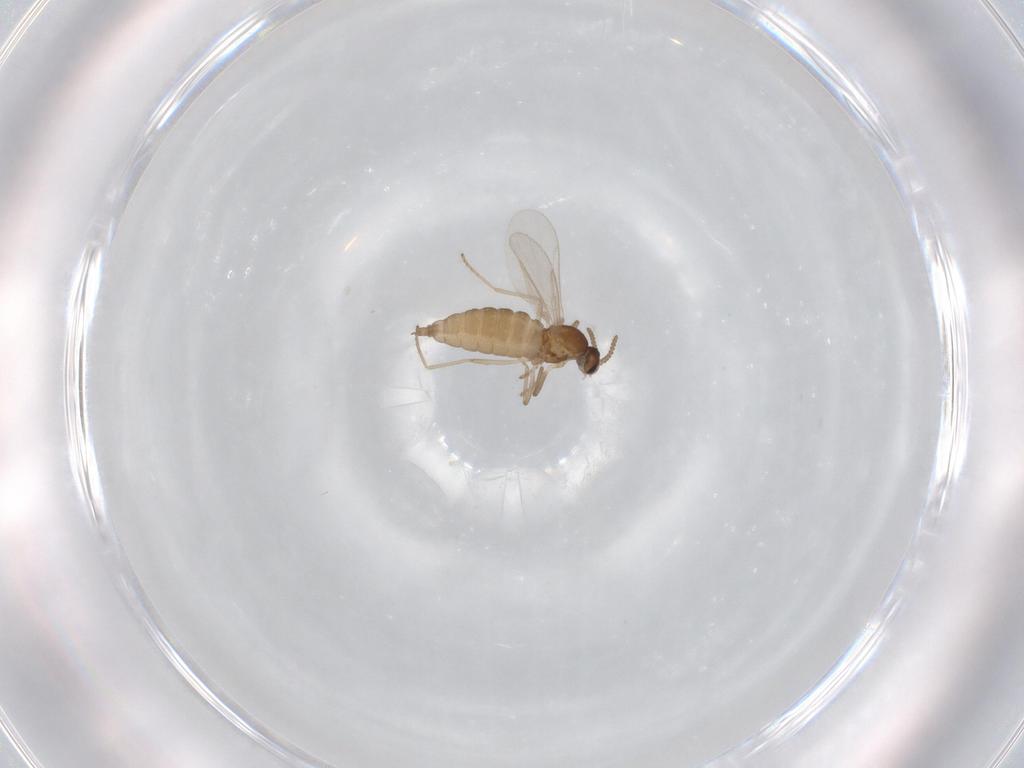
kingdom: Animalia
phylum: Arthropoda
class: Insecta
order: Diptera
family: Cecidomyiidae
